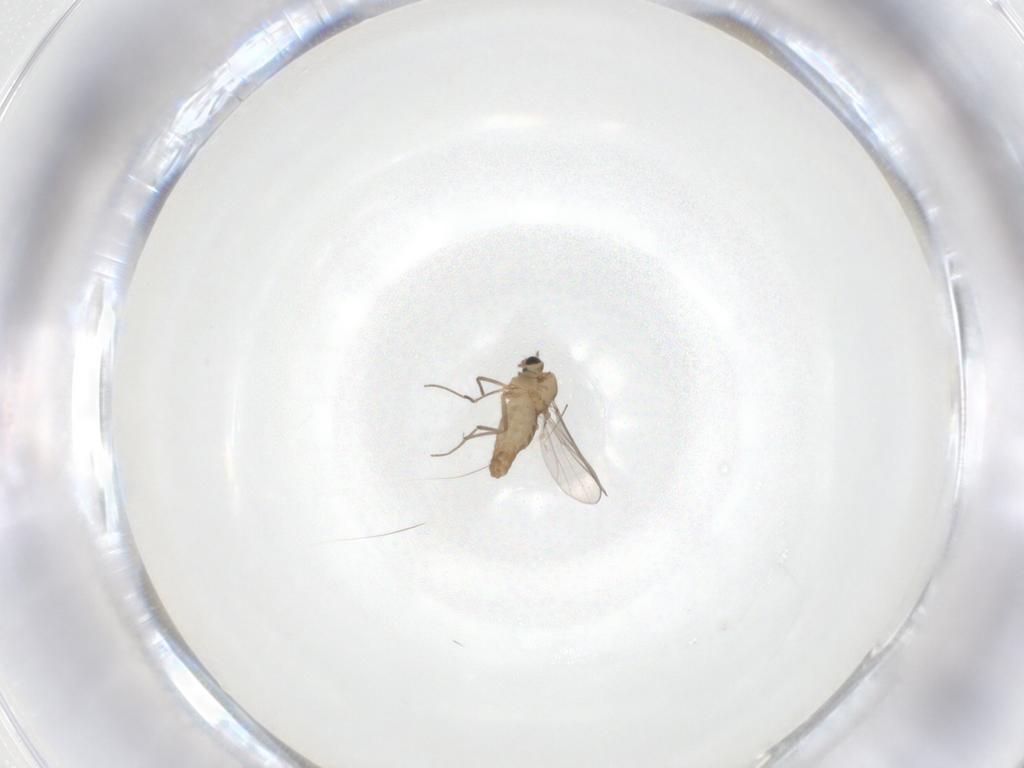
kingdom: Animalia
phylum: Arthropoda
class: Insecta
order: Diptera
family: Chironomidae
